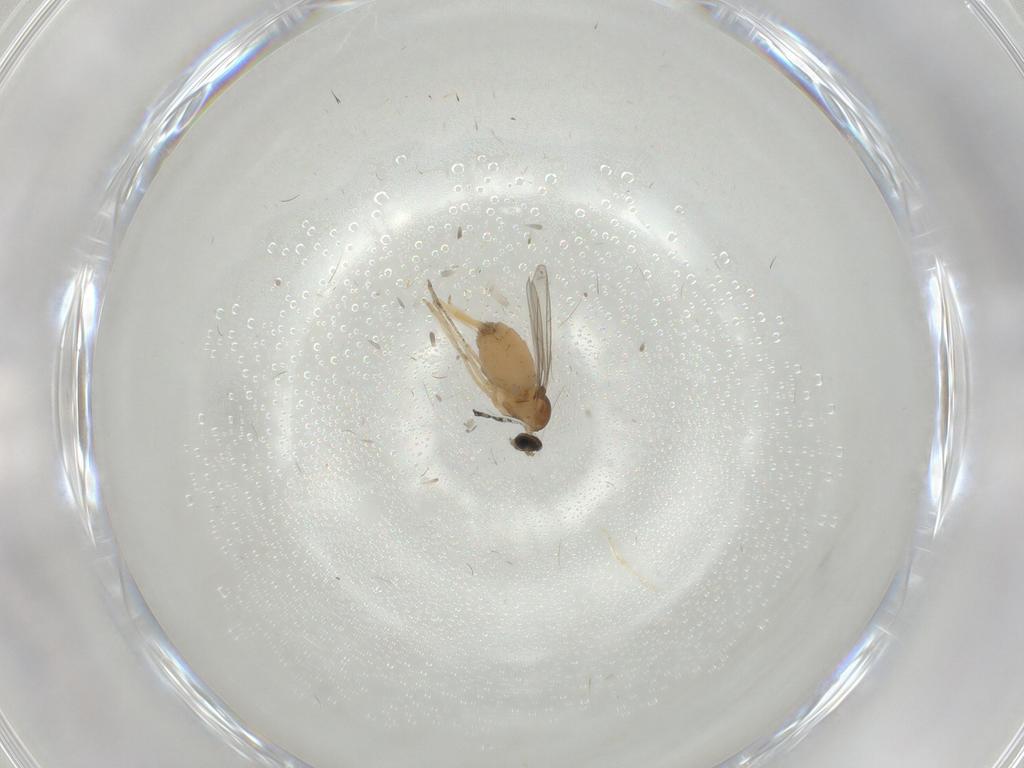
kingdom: Animalia
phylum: Arthropoda
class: Insecta
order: Diptera
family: Cecidomyiidae
